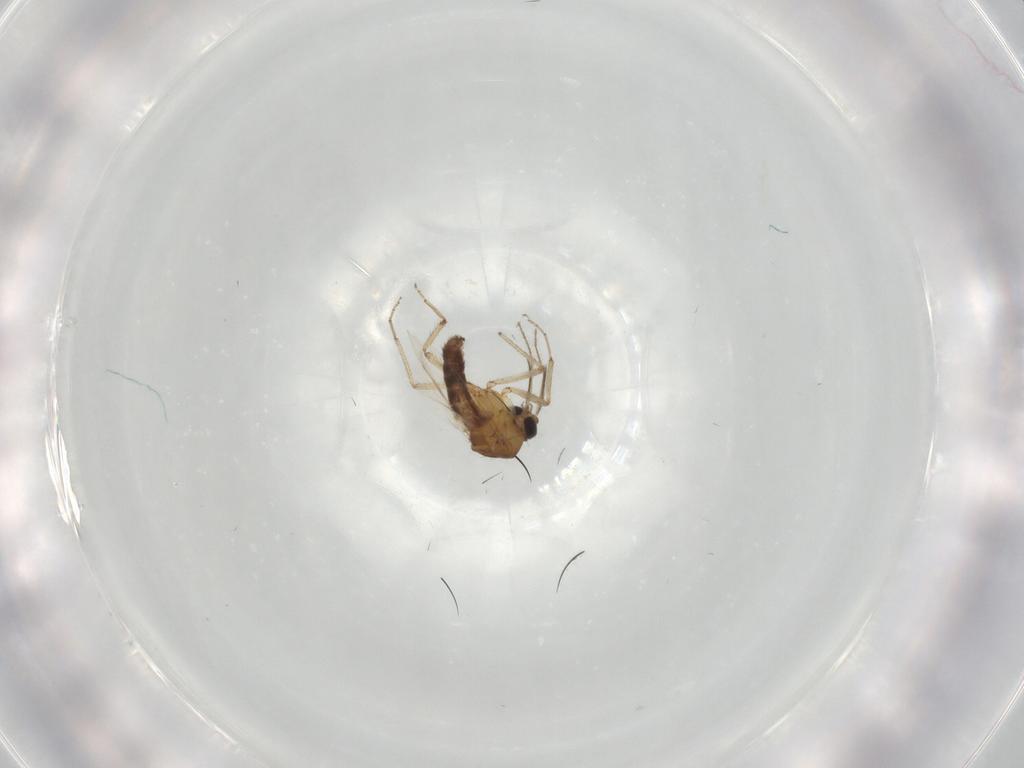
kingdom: Animalia
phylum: Arthropoda
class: Insecta
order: Diptera
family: Ceratopogonidae
